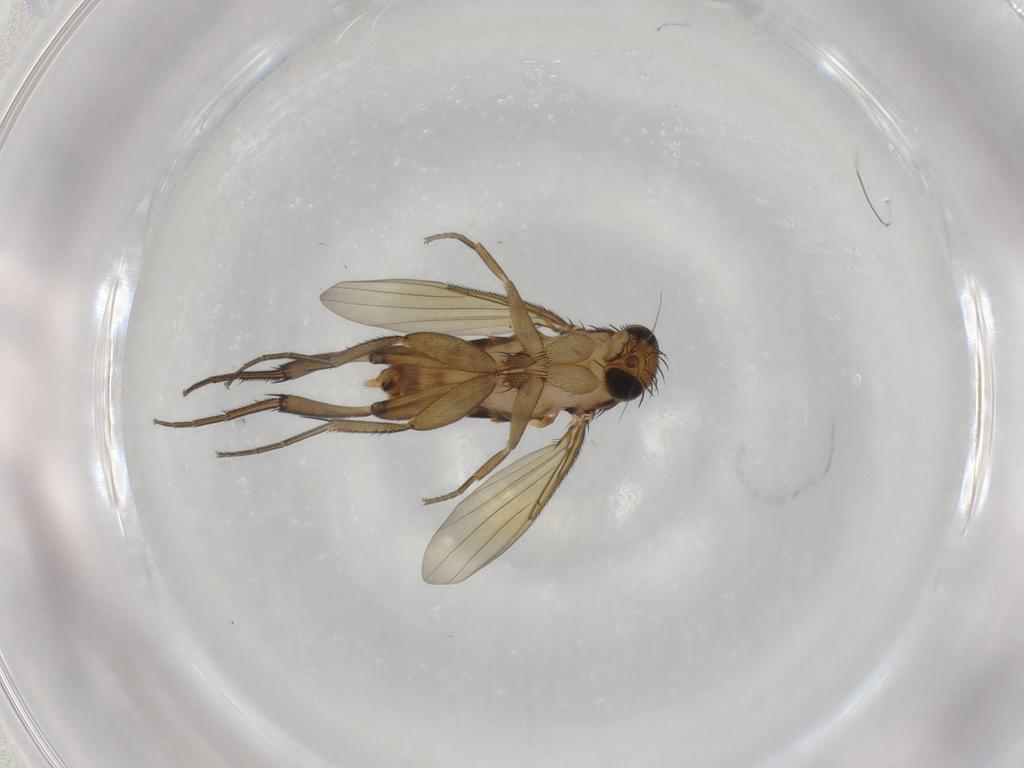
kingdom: Animalia
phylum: Arthropoda
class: Insecta
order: Diptera
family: Phoridae
